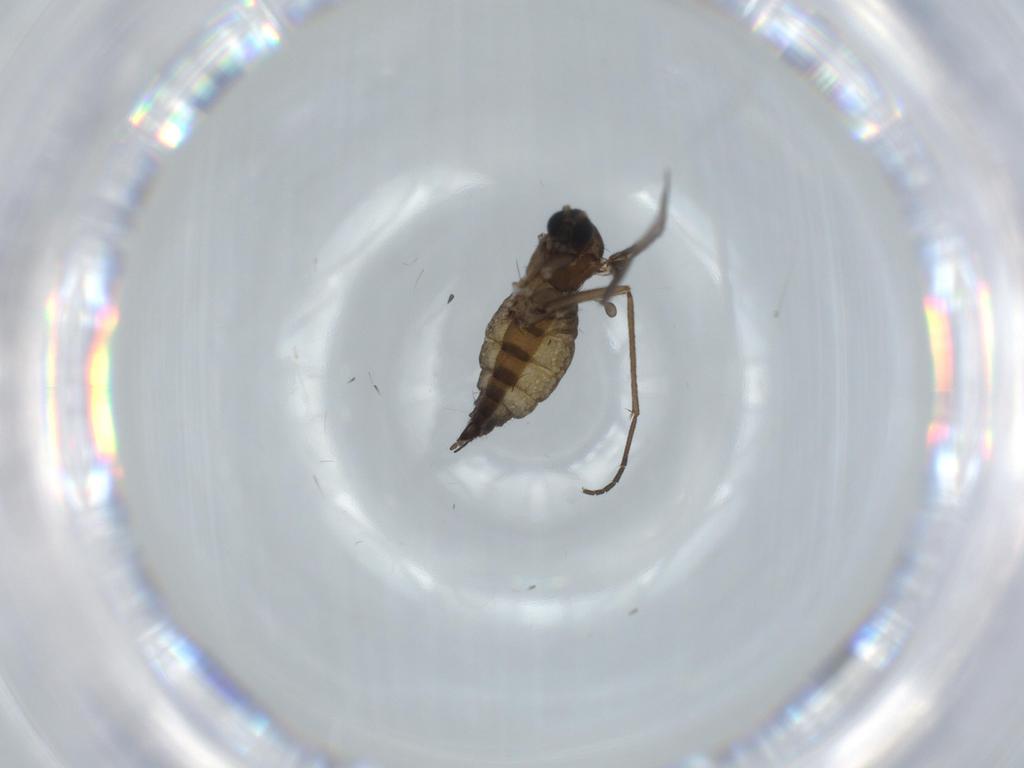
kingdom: Animalia
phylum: Arthropoda
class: Insecta
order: Diptera
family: Sciaridae
